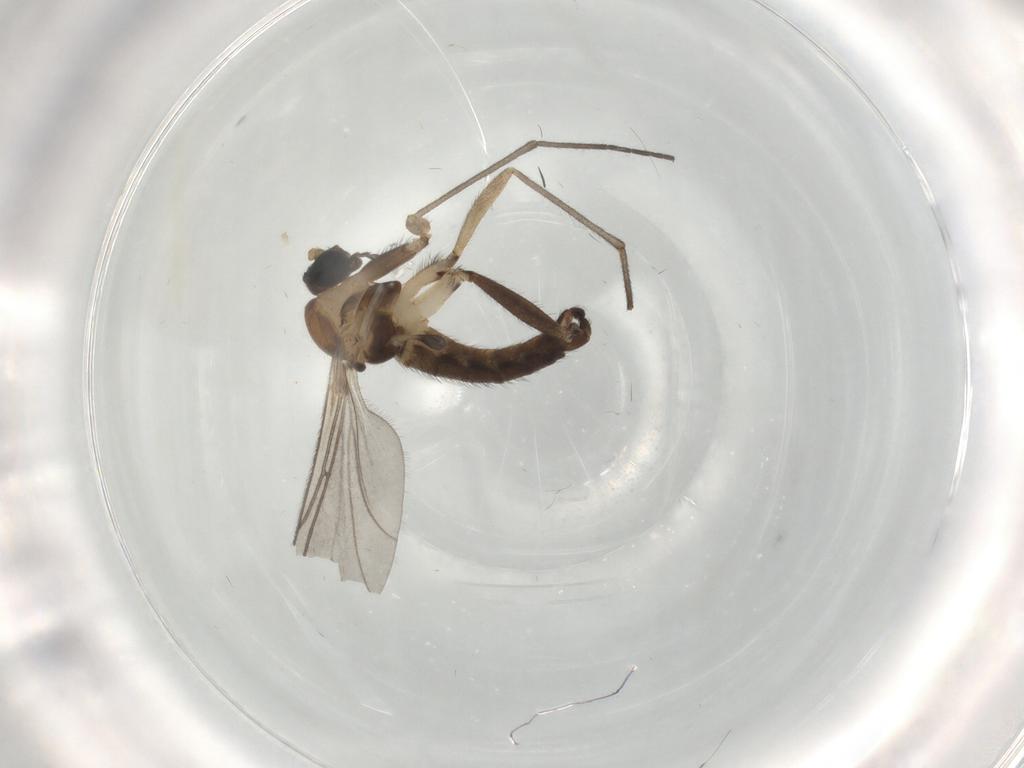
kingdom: Animalia
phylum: Arthropoda
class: Insecta
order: Diptera
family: Sciaridae
